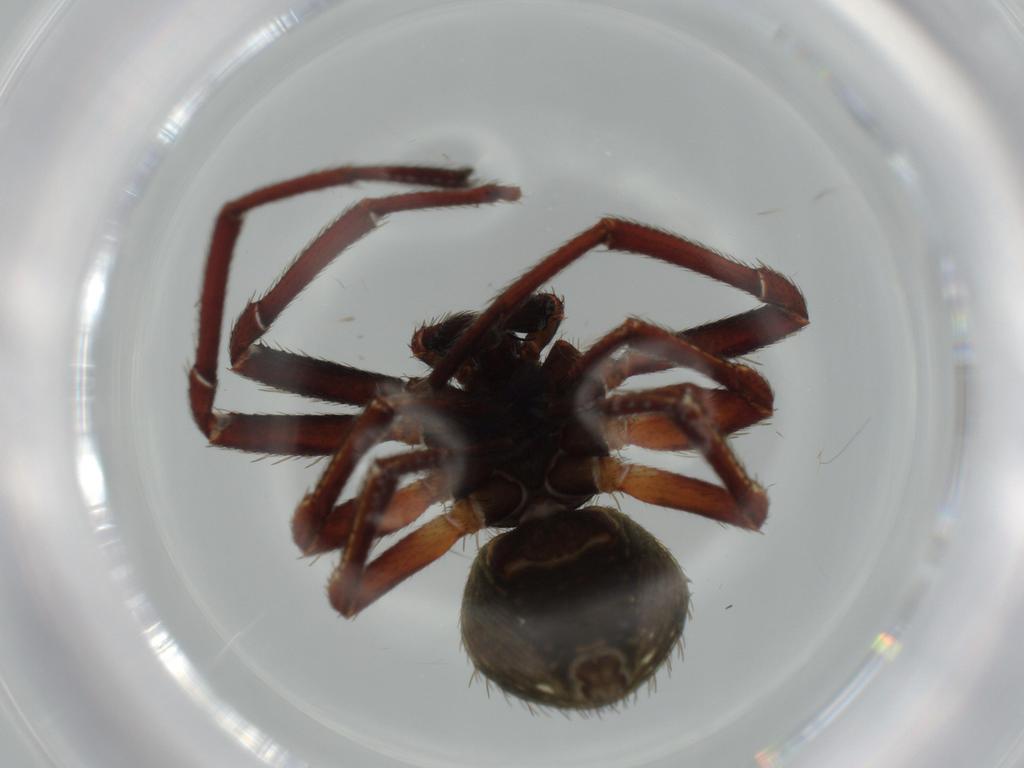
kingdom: Animalia
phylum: Arthropoda
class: Arachnida
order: Araneae
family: Thomisidae
